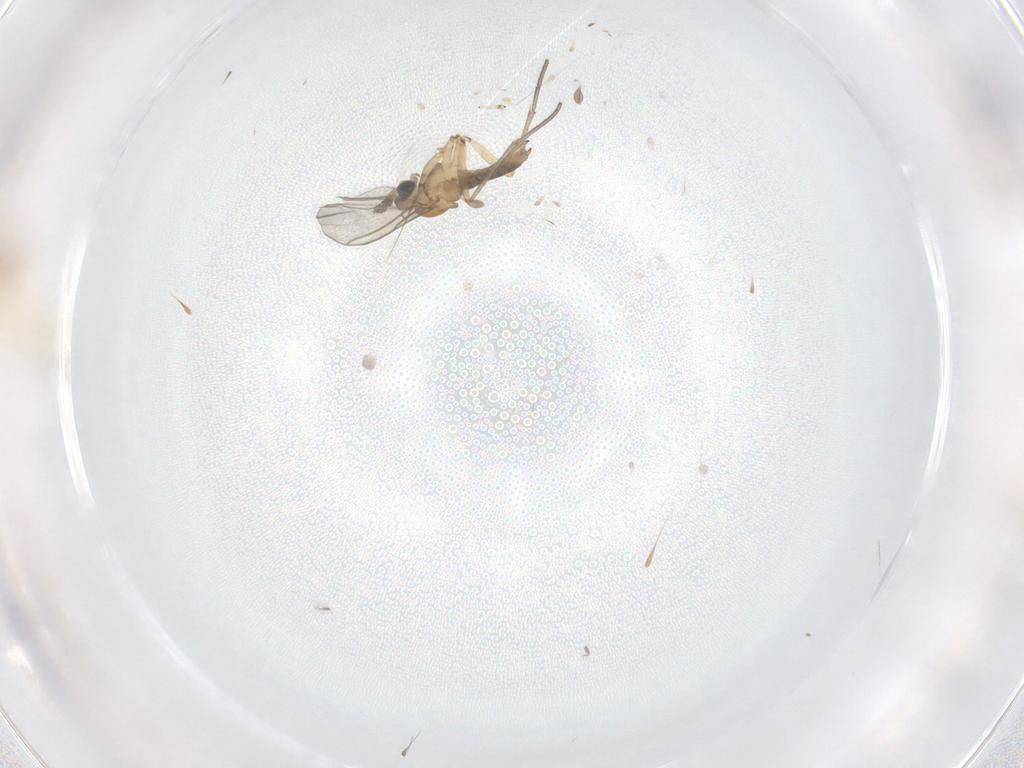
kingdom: Animalia
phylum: Arthropoda
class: Insecta
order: Diptera
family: Sciaridae
